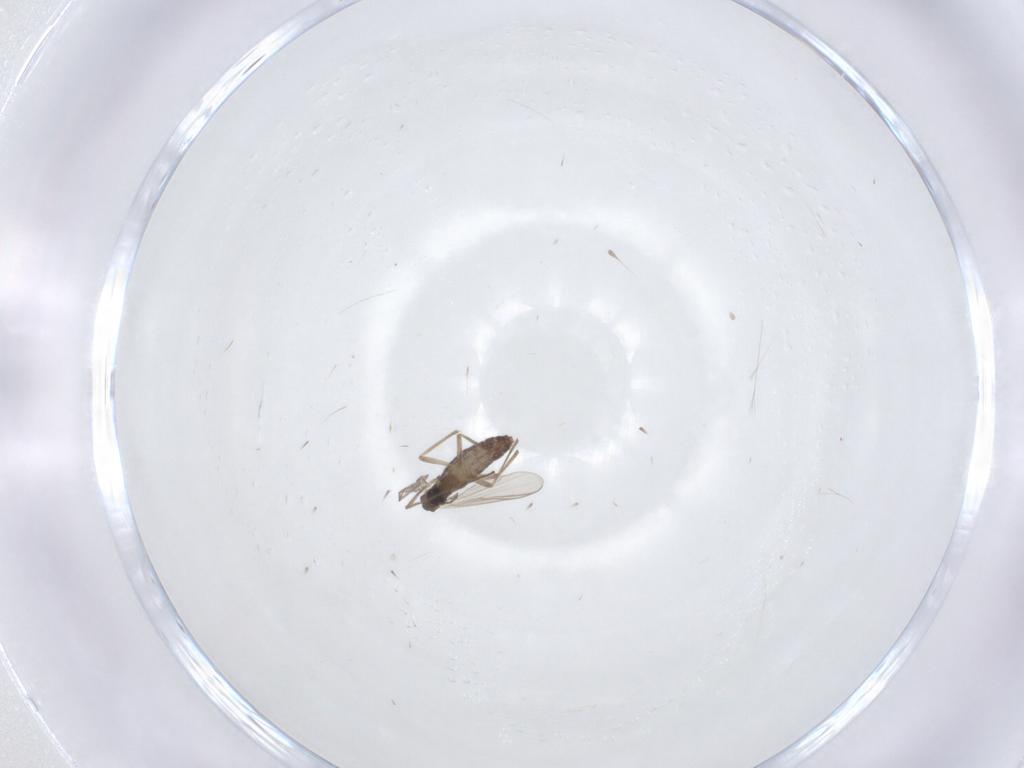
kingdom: Animalia
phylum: Arthropoda
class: Insecta
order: Diptera
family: Chironomidae
